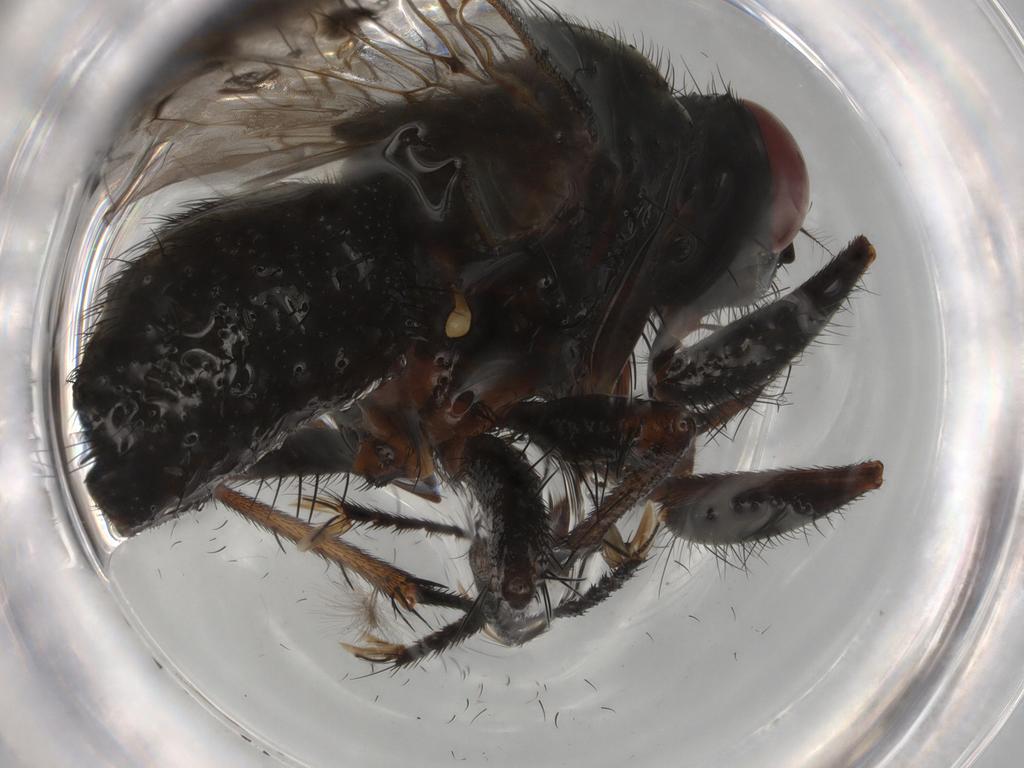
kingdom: Animalia
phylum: Arthropoda
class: Insecta
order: Diptera
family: Muscidae
